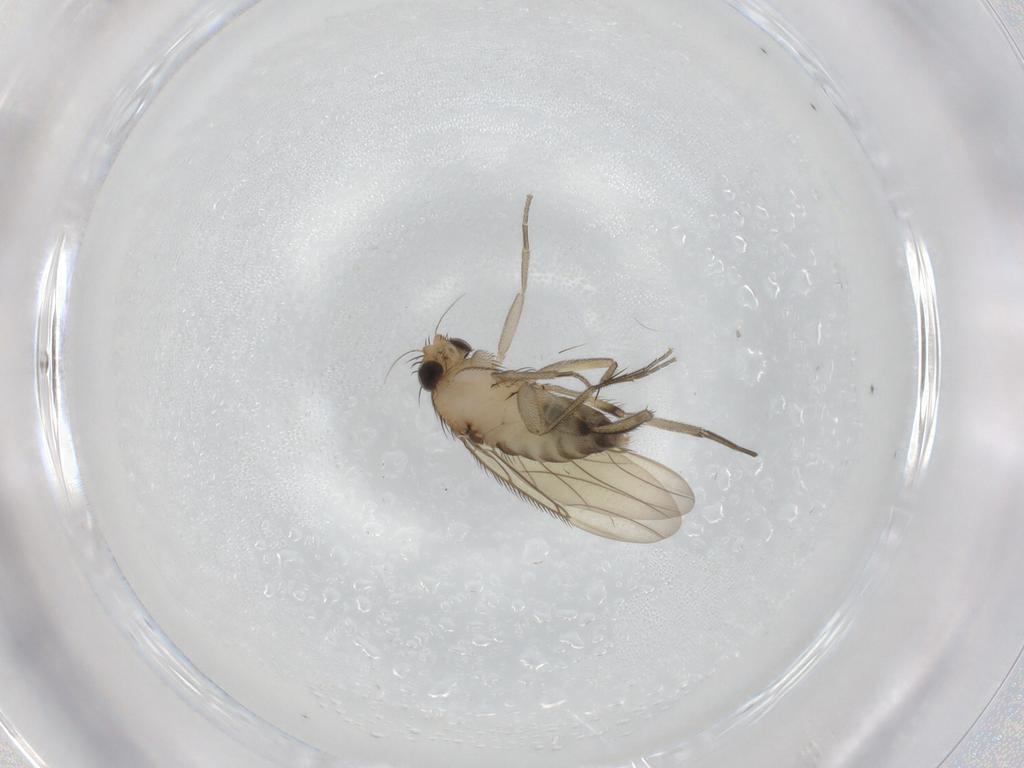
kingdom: Animalia
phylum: Arthropoda
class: Insecta
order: Diptera
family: Phoridae
